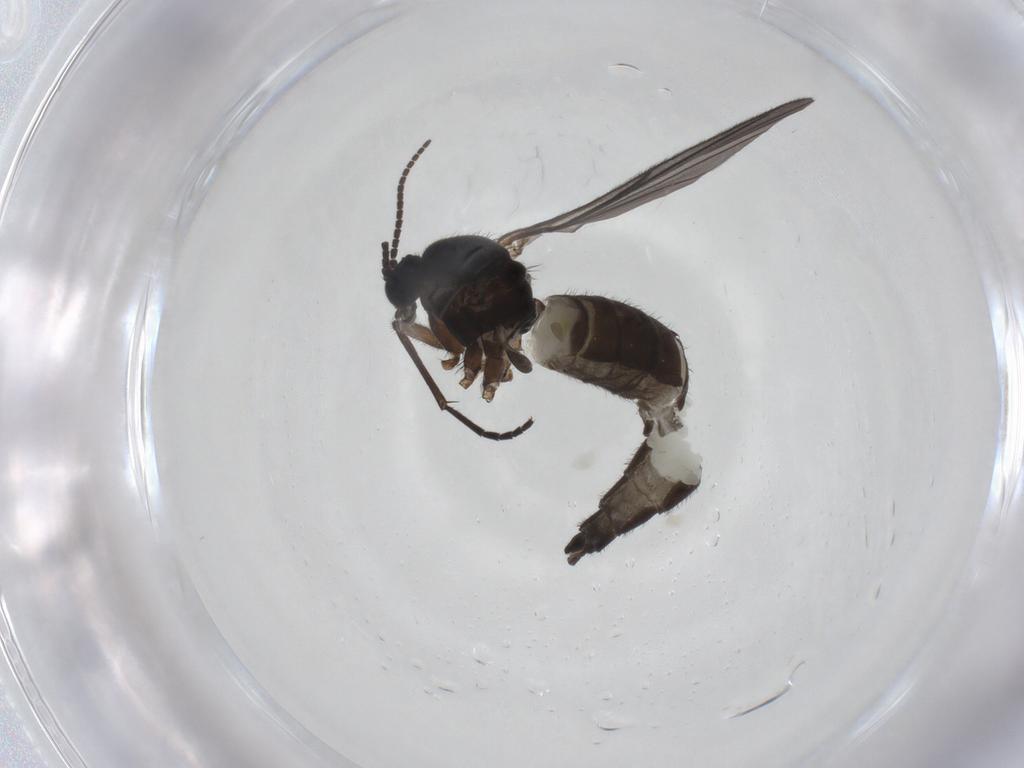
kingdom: Animalia
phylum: Arthropoda
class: Insecta
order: Diptera
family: Sciaridae
